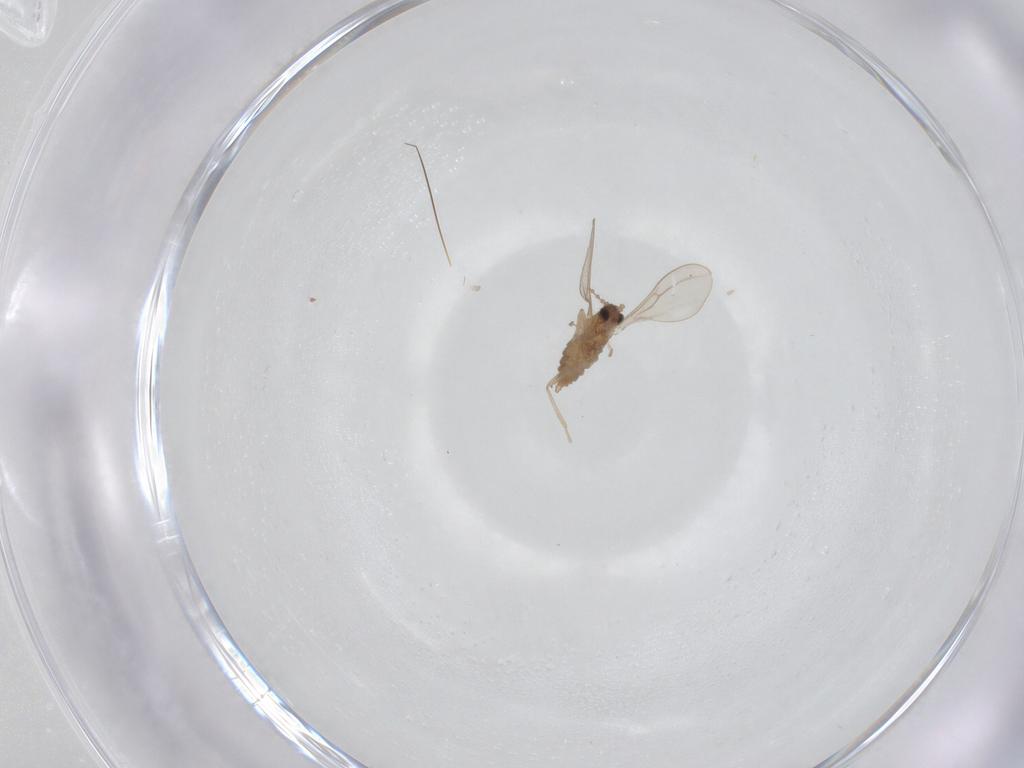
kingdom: Animalia
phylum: Arthropoda
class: Insecta
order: Diptera
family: Cecidomyiidae
